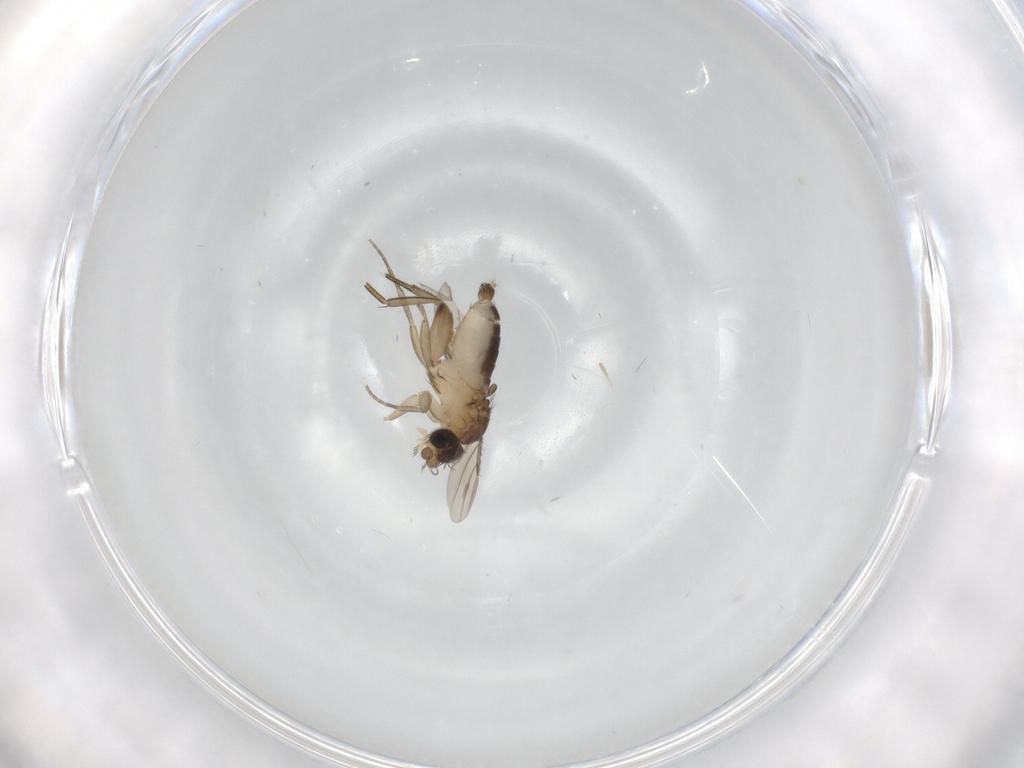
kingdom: Animalia
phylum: Arthropoda
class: Insecta
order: Diptera
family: Phoridae
